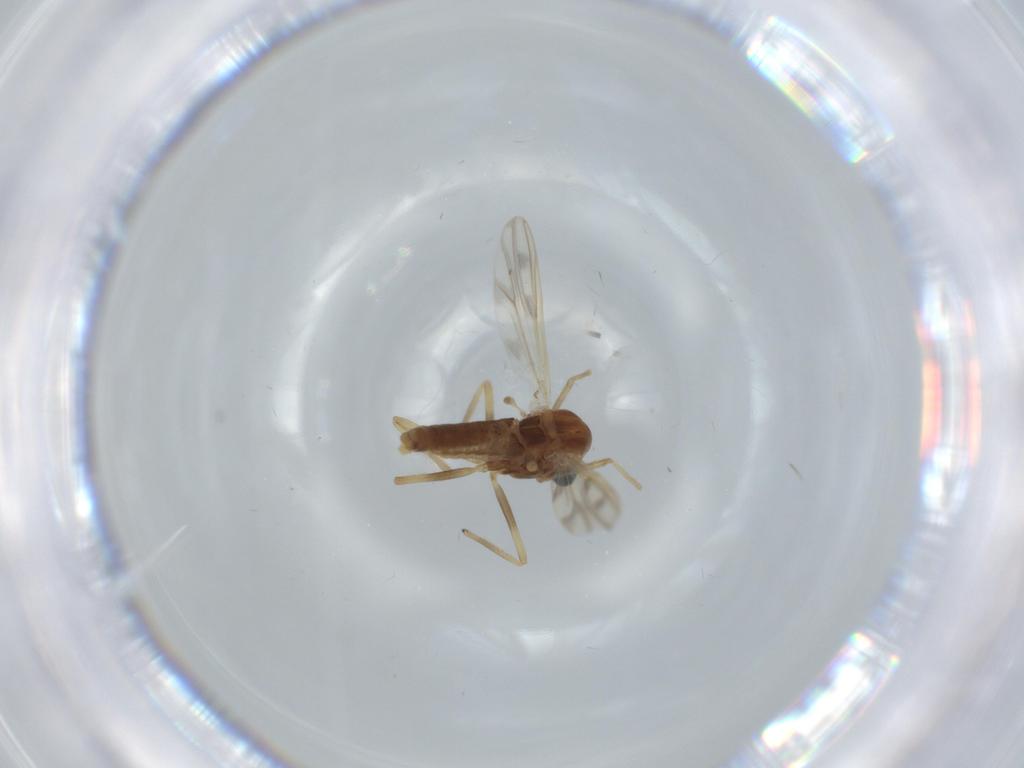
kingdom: Animalia
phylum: Arthropoda
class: Insecta
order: Diptera
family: Chironomidae
